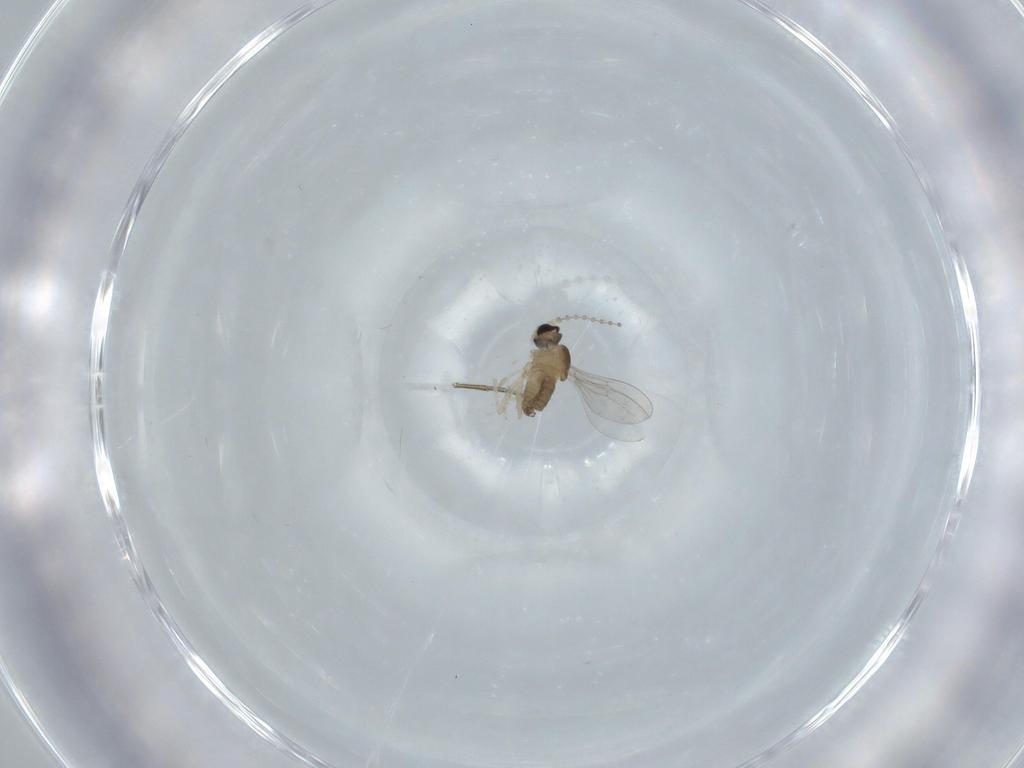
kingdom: Animalia
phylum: Arthropoda
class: Insecta
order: Diptera
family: Cecidomyiidae
